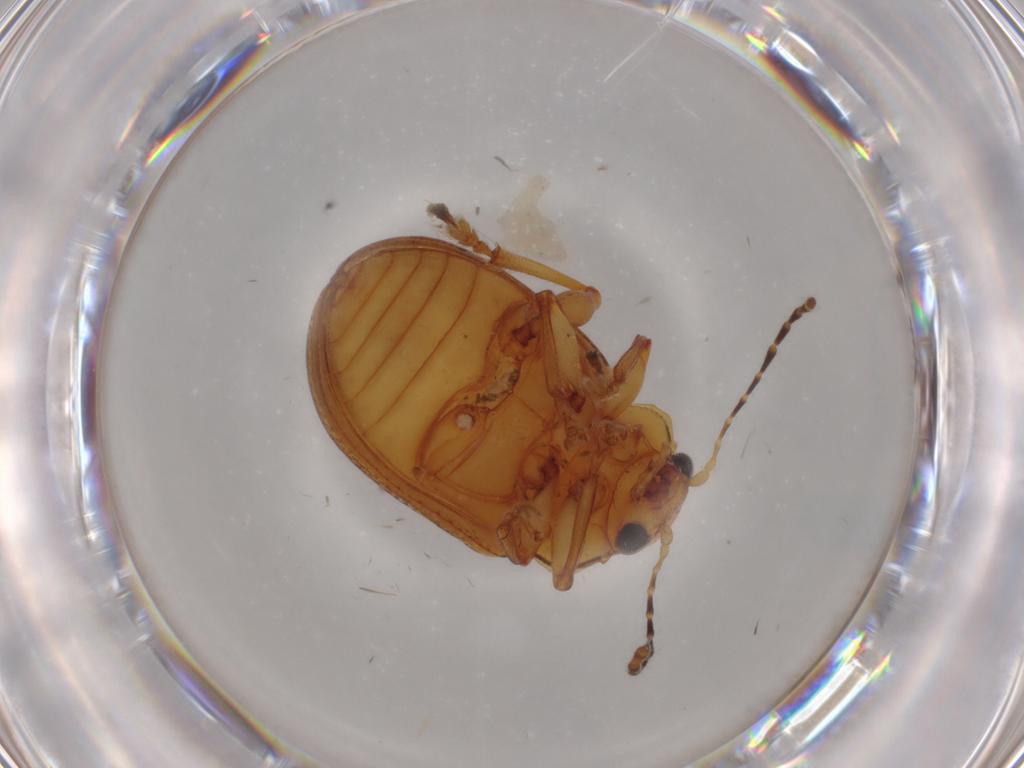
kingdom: Animalia
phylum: Arthropoda
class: Insecta
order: Coleoptera
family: Chrysomelidae
